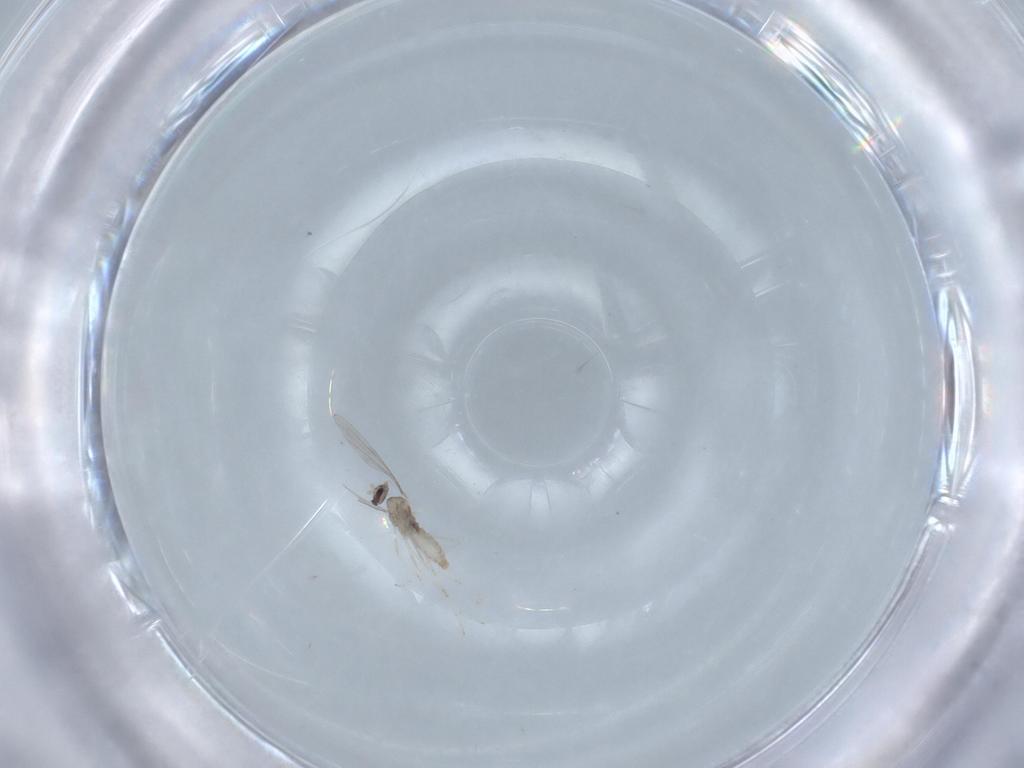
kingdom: Animalia
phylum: Arthropoda
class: Insecta
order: Diptera
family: Cecidomyiidae
